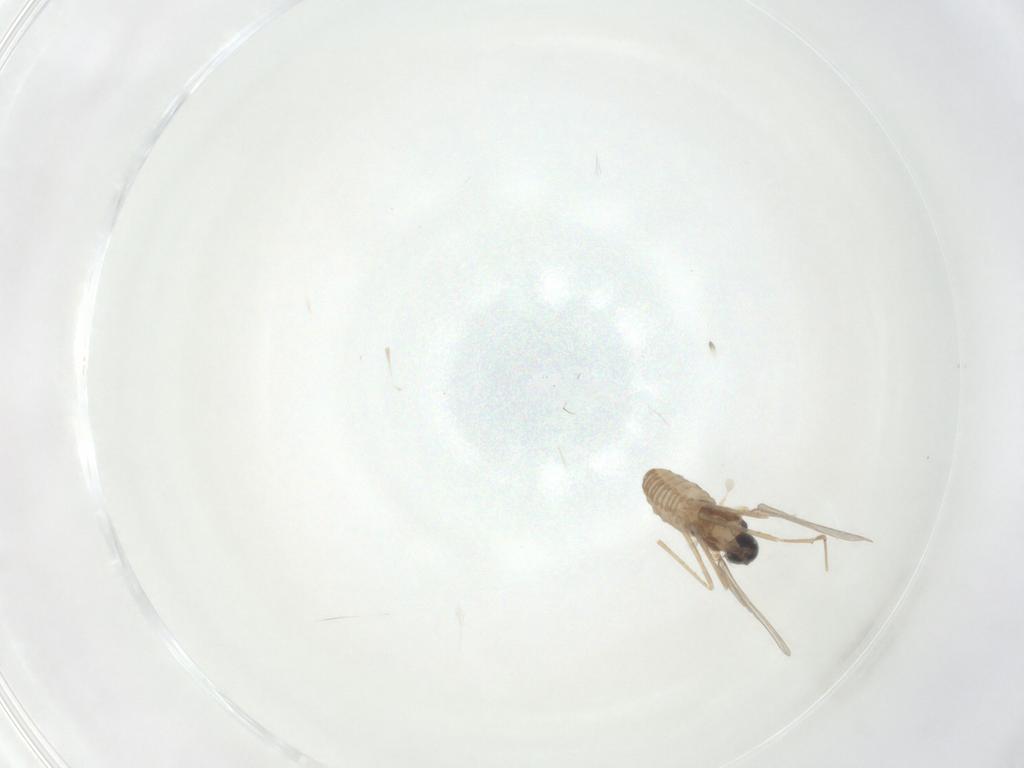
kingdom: Animalia
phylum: Arthropoda
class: Insecta
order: Diptera
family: Cecidomyiidae
